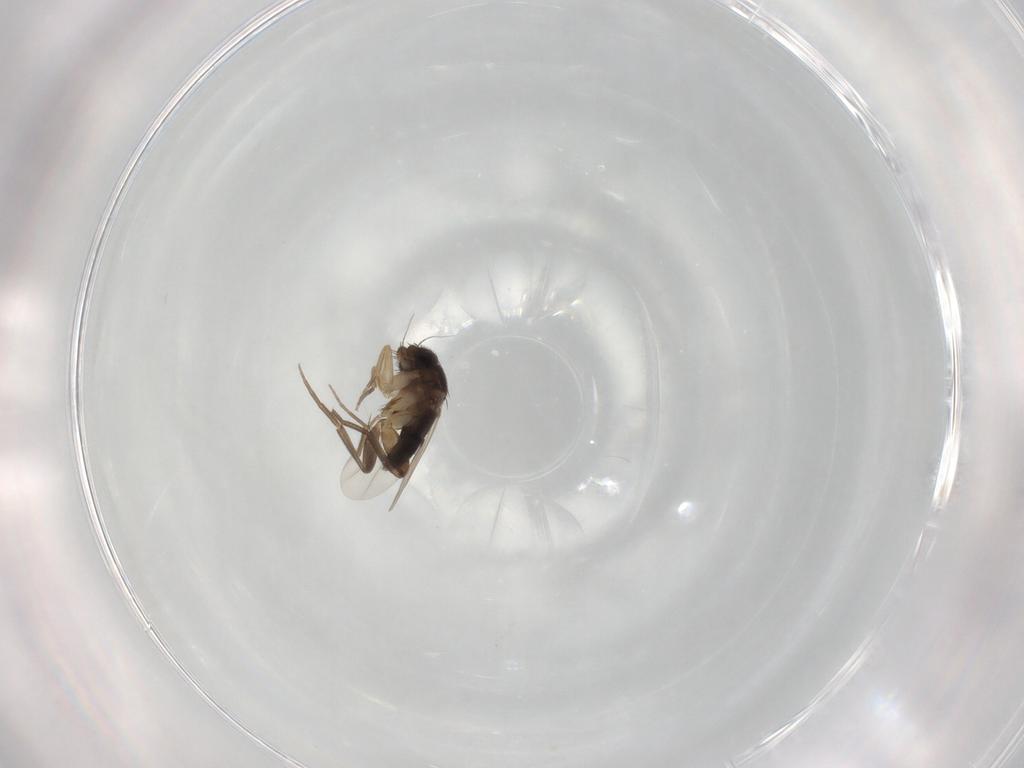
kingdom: Animalia
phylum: Arthropoda
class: Insecta
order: Diptera
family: Phoridae
